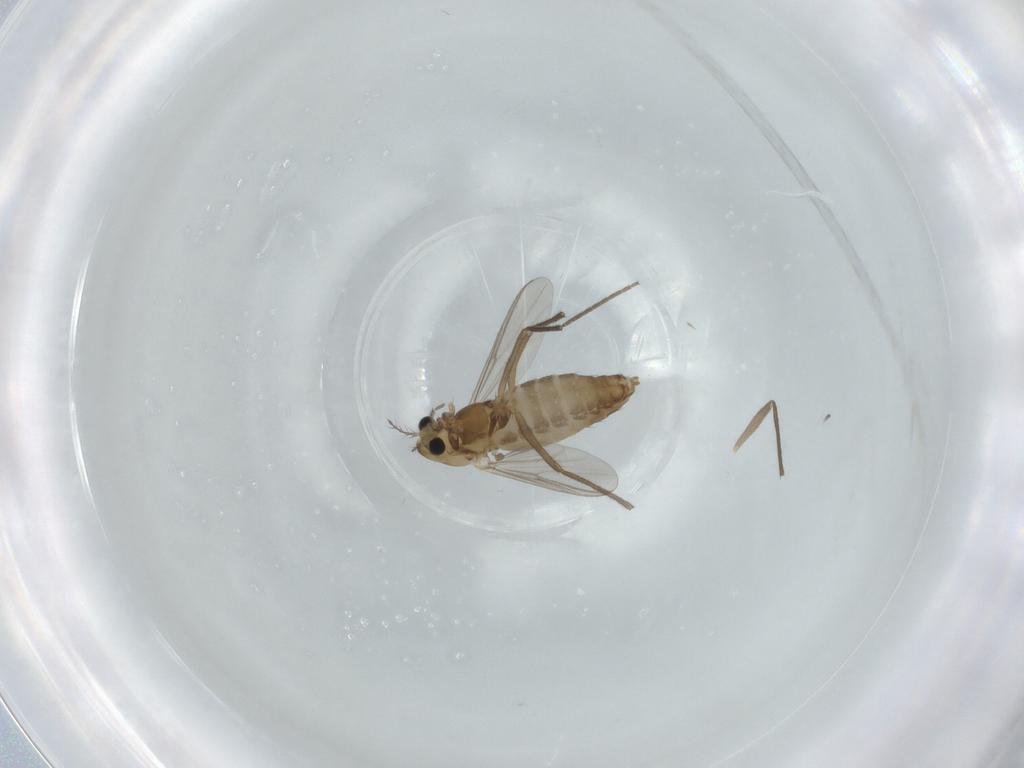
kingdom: Animalia
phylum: Arthropoda
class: Insecta
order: Diptera
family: Chironomidae
